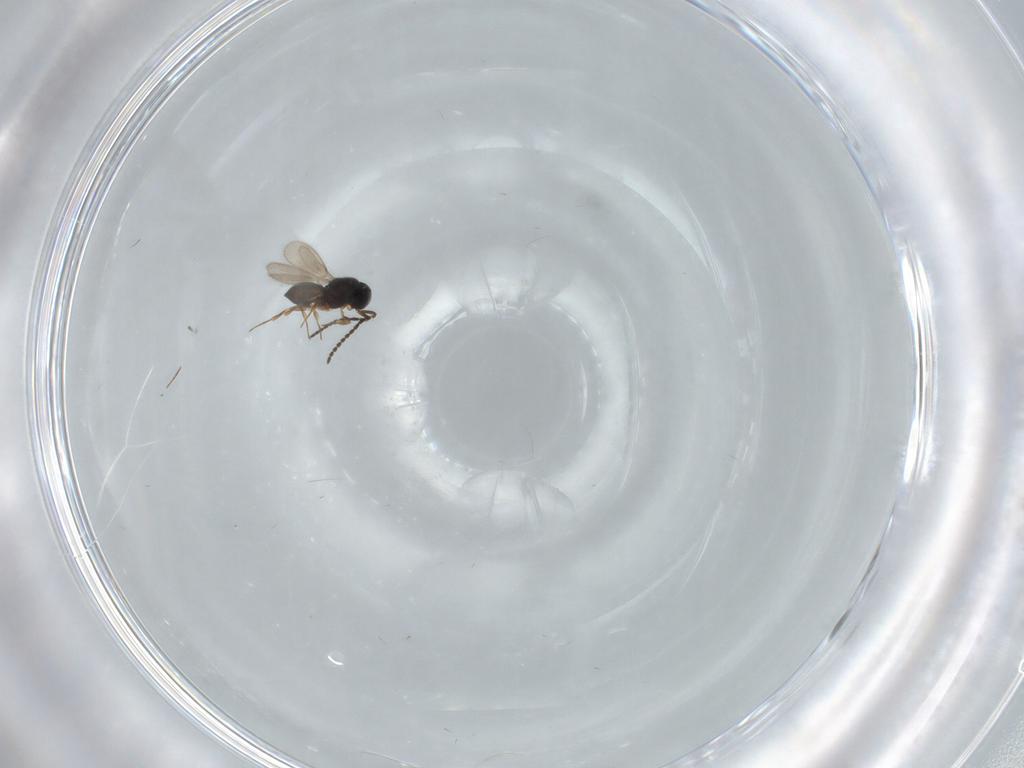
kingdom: Animalia
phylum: Arthropoda
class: Insecta
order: Hymenoptera
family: Scelionidae
